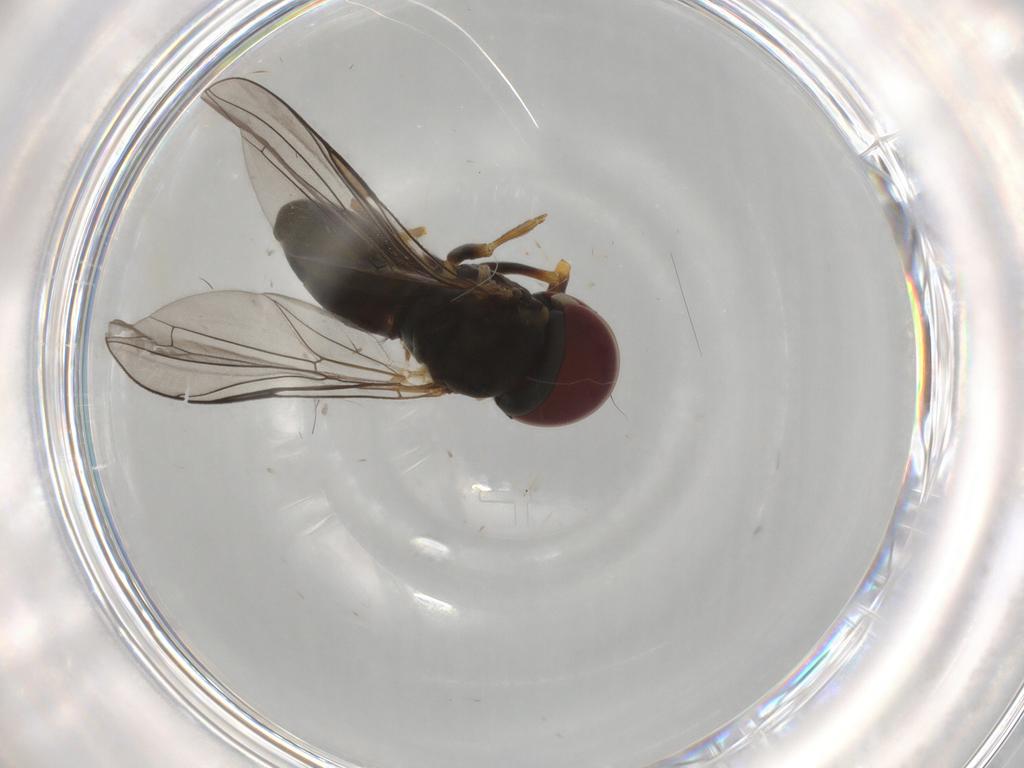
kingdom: Animalia
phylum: Arthropoda
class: Insecta
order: Diptera
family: Pipunculidae
